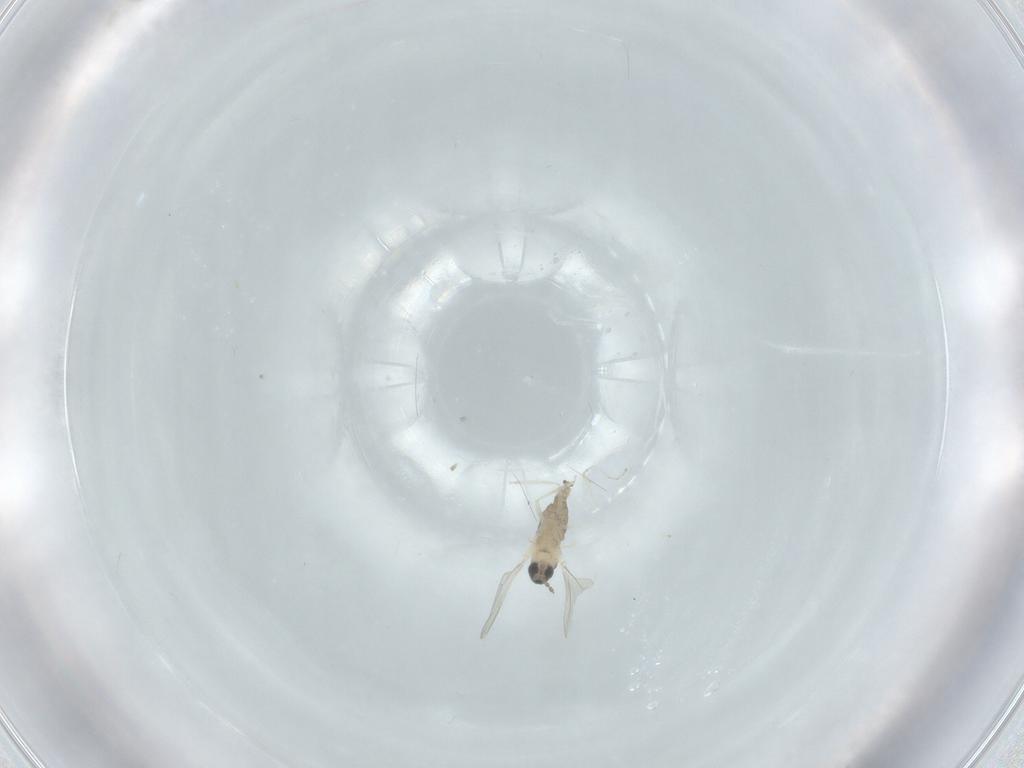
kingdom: Animalia
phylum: Arthropoda
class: Insecta
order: Diptera
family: Cecidomyiidae
